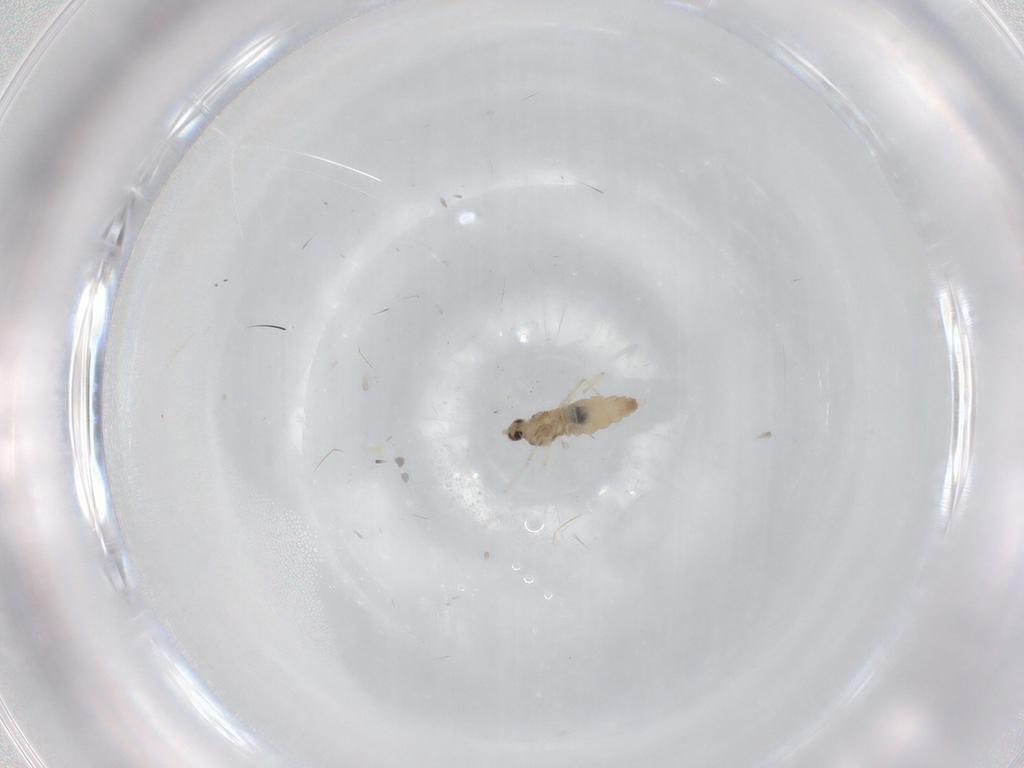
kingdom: Animalia
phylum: Arthropoda
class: Insecta
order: Diptera
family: Cecidomyiidae
